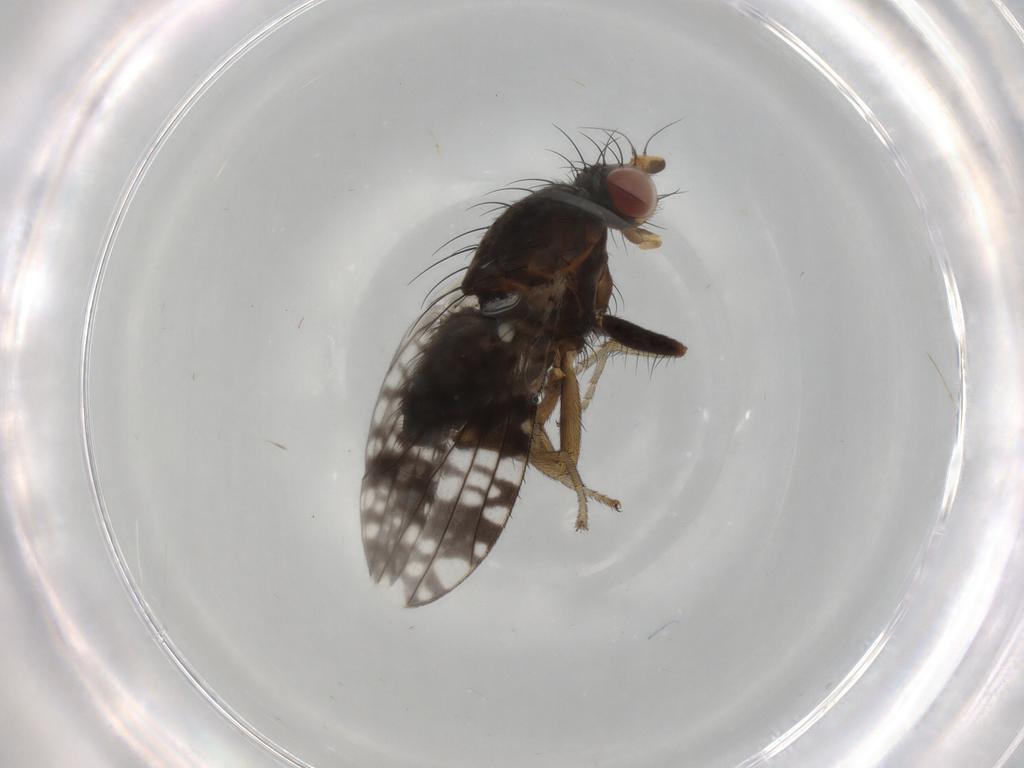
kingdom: Animalia
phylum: Arthropoda
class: Insecta
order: Diptera
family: Tephritidae
